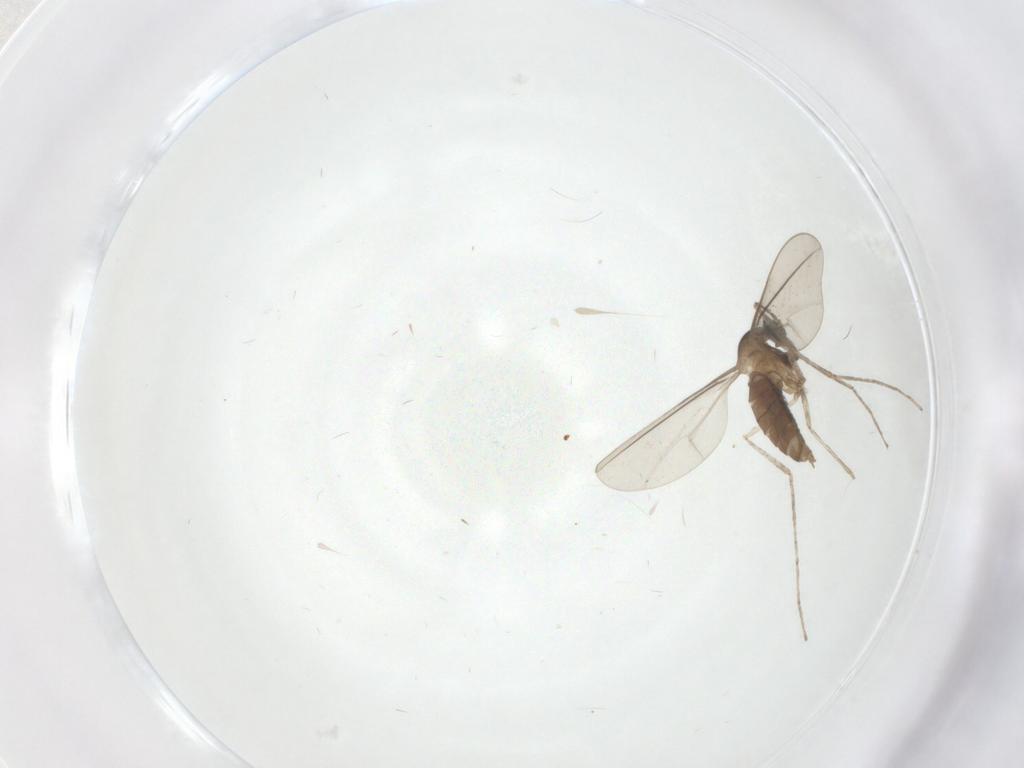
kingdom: Animalia
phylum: Arthropoda
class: Insecta
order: Diptera
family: Cecidomyiidae
